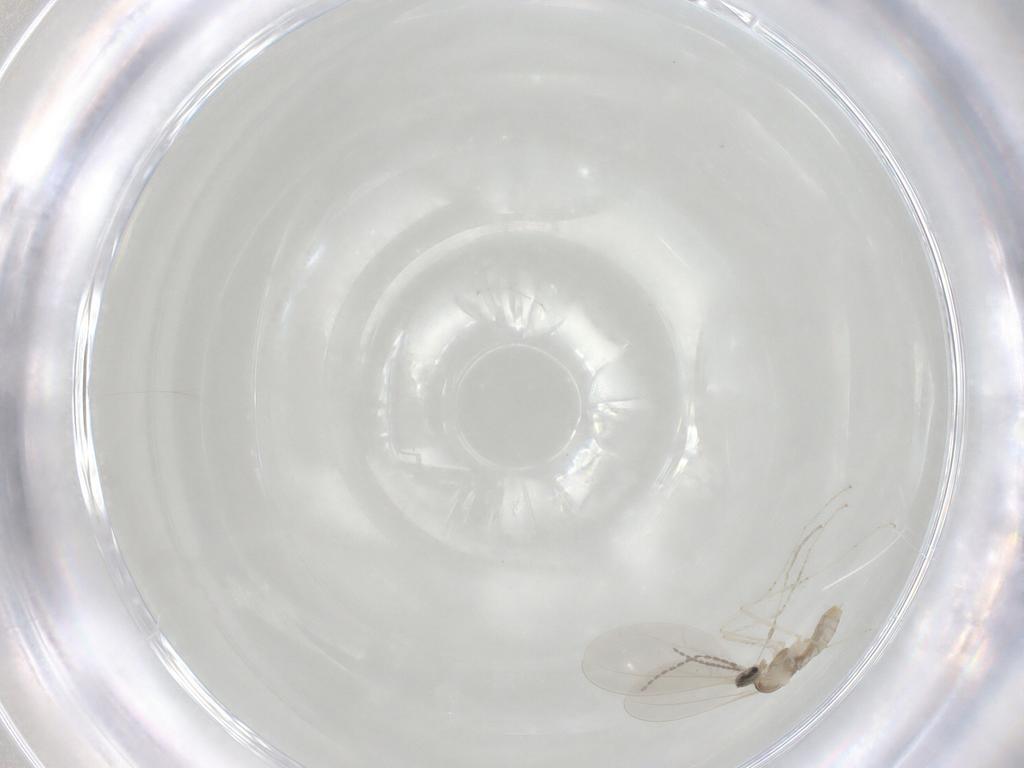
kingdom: Animalia
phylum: Arthropoda
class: Insecta
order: Diptera
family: Cecidomyiidae
